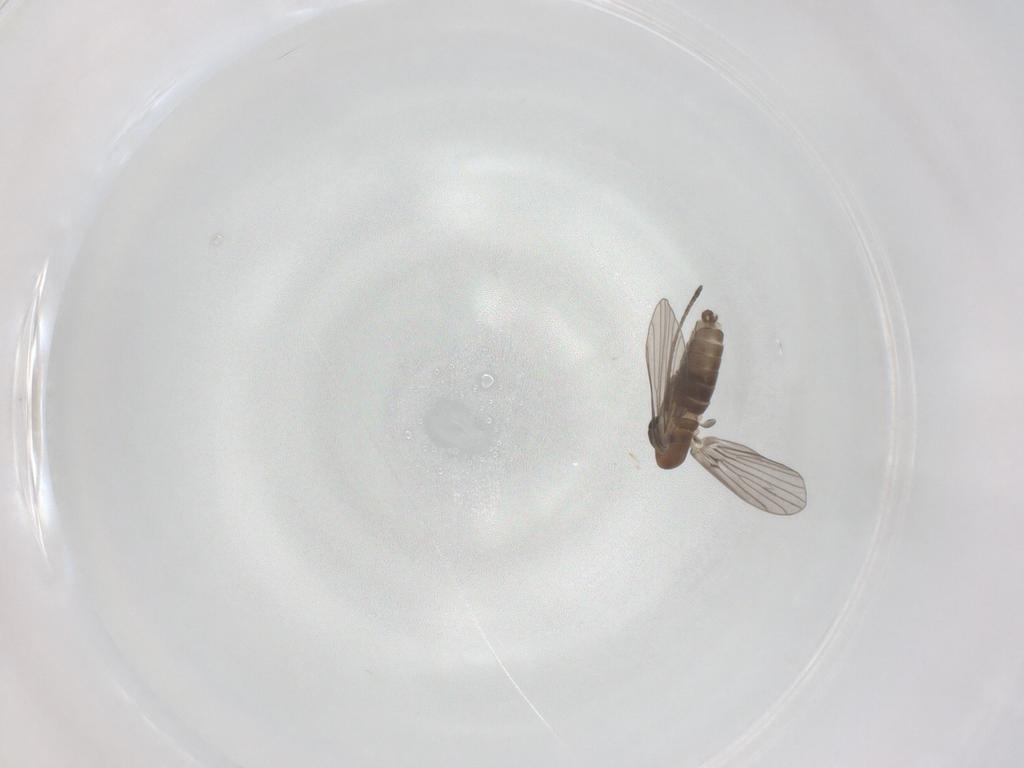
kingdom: Animalia
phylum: Arthropoda
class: Insecta
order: Diptera
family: Psychodidae
